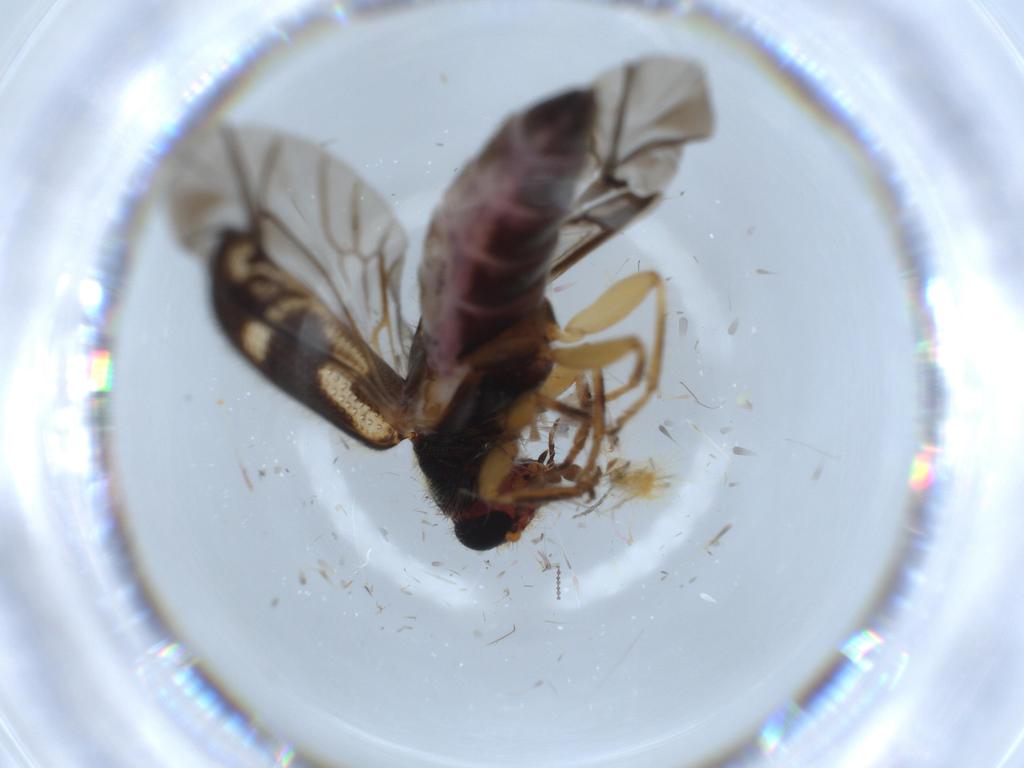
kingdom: Animalia
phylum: Arthropoda
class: Insecta
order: Coleoptera
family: Cleridae
